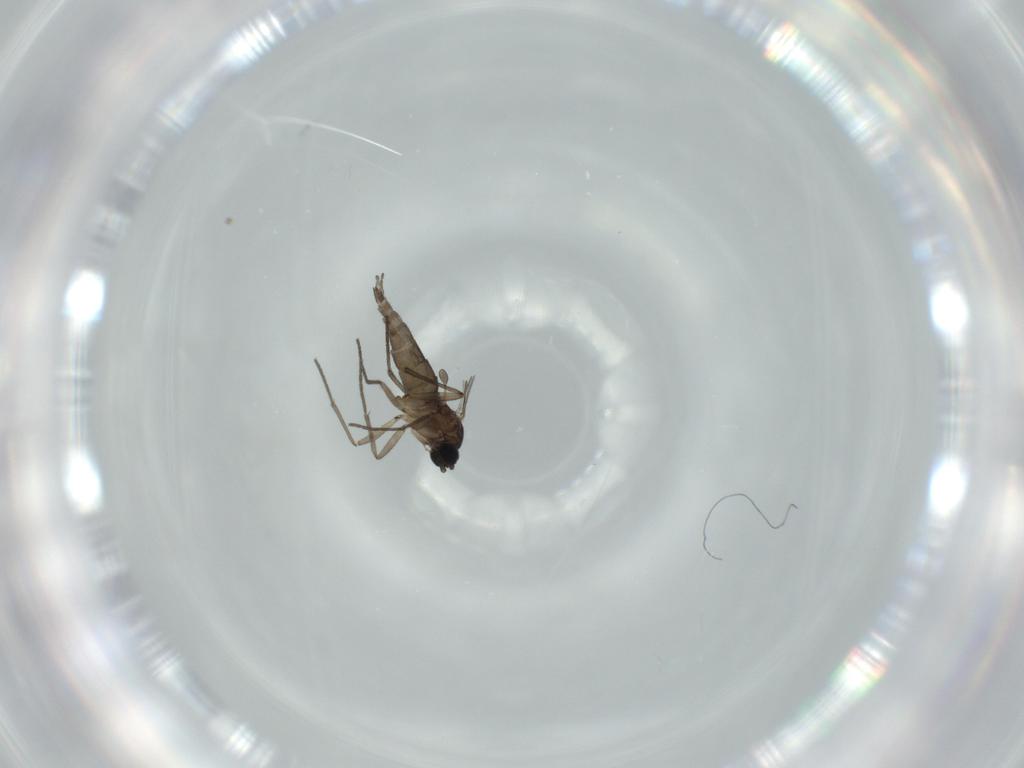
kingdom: Animalia
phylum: Arthropoda
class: Insecta
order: Diptera
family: Sciaridae
